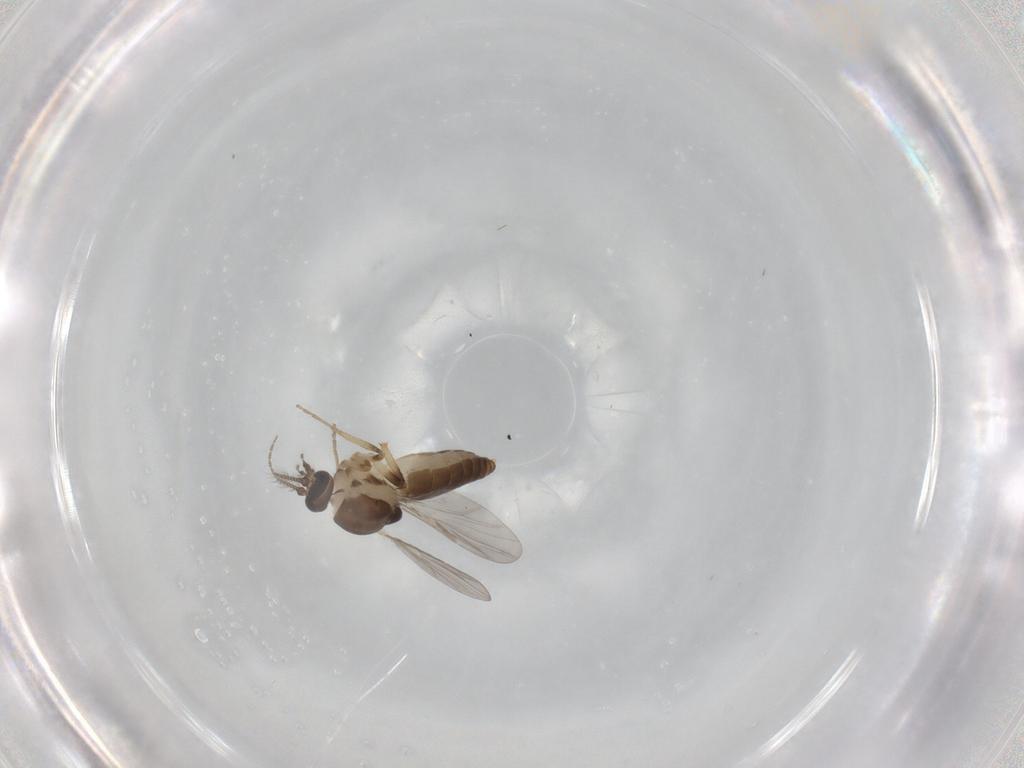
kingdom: Animalia
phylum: Arthropoda
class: Insecta
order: Diptera
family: Ceratopogonidae
